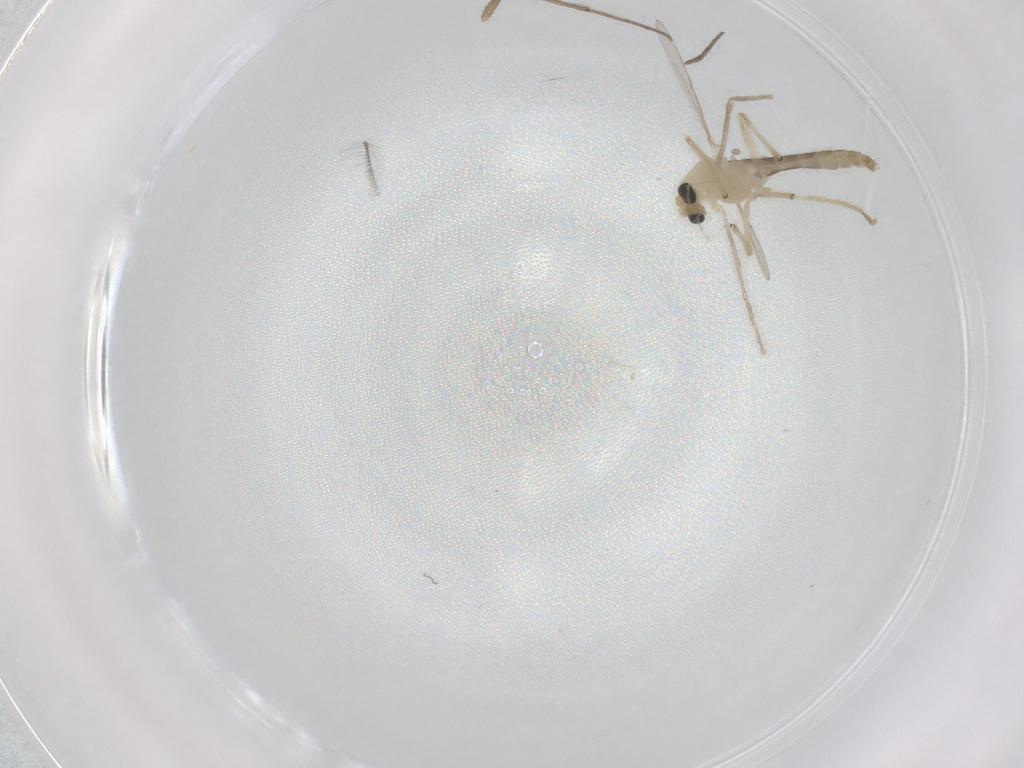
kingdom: Animalia
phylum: Arthropoda
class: Insecta
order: Diptera
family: Chironomidae
